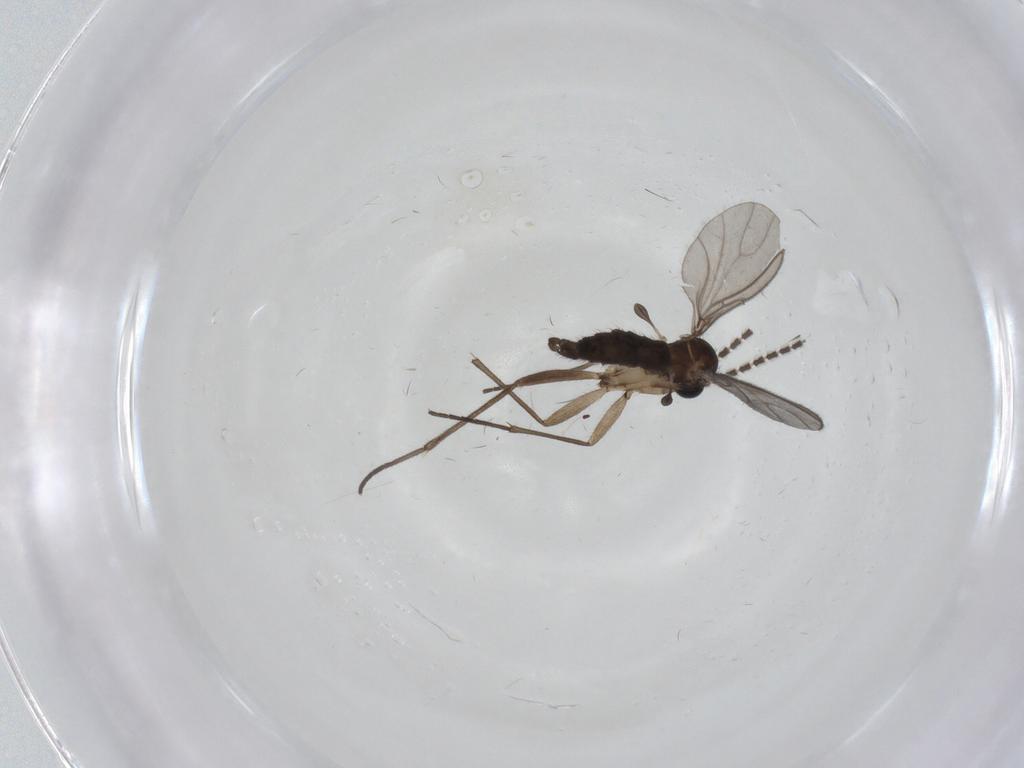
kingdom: Animalia
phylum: Arthropoda
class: Insecta
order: Diptera
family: Sciaridae
